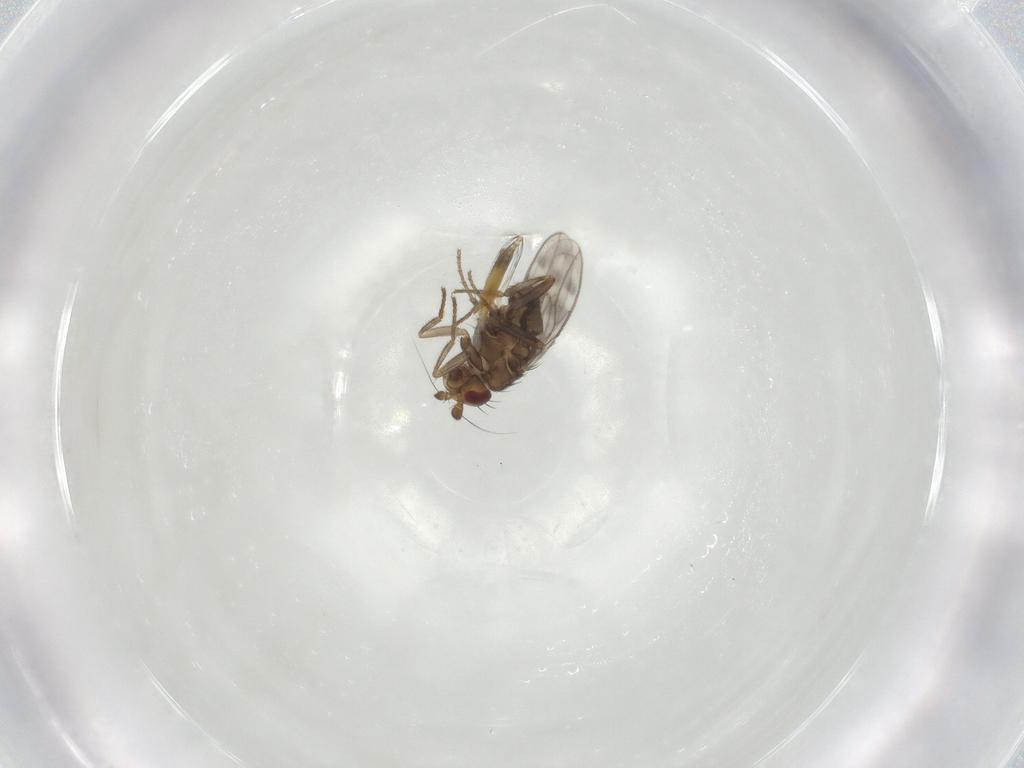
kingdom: Animalia
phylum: Arthropoda
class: Insecta
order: Diptera
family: Ceratopogonidae
